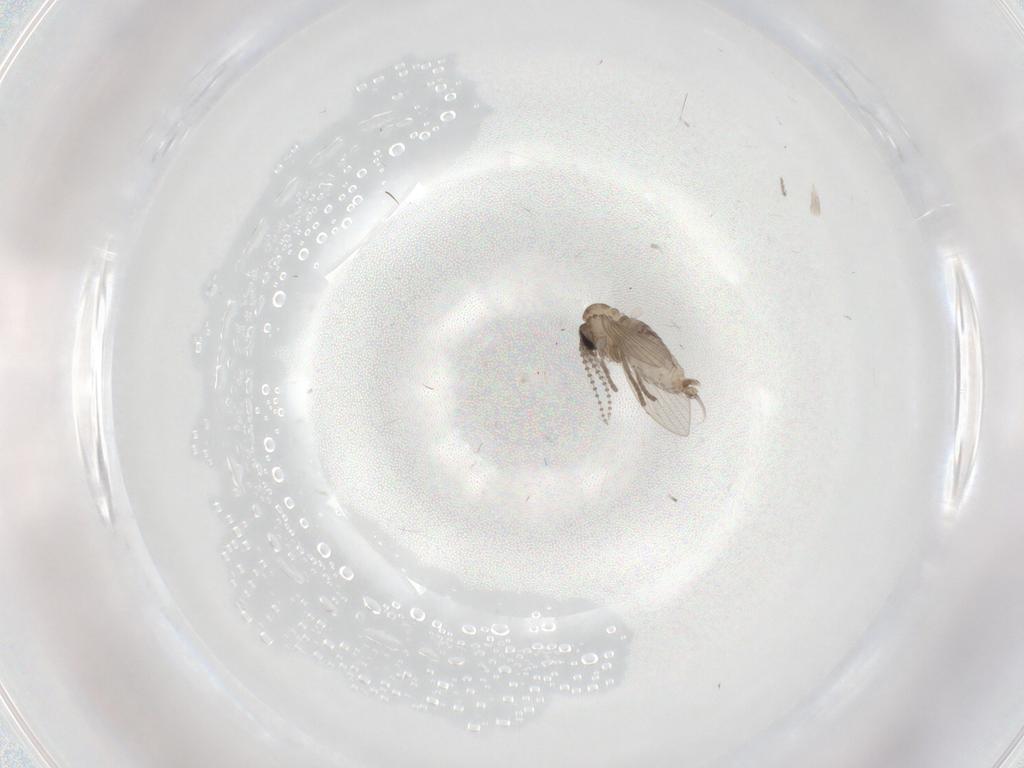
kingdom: Animalia
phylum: Arthropoda
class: Insecta
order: Diptera
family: Psychodidae
